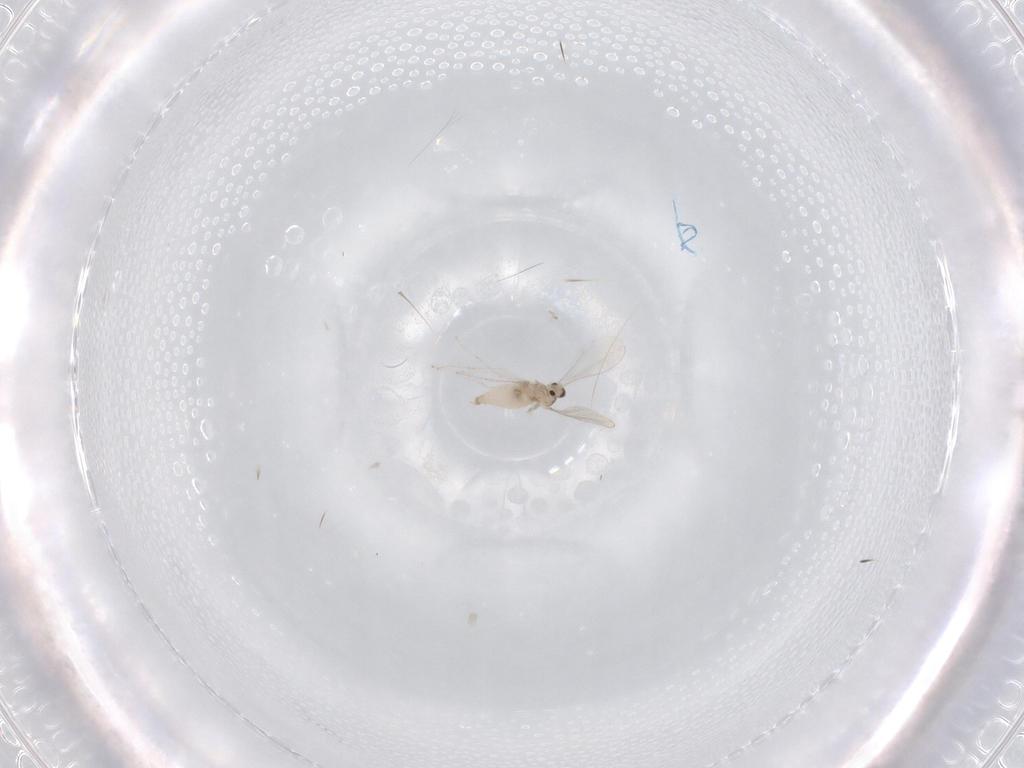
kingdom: Animalia
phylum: Arthropoda
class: Insecta
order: Diptera
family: Cecidomyiidae
